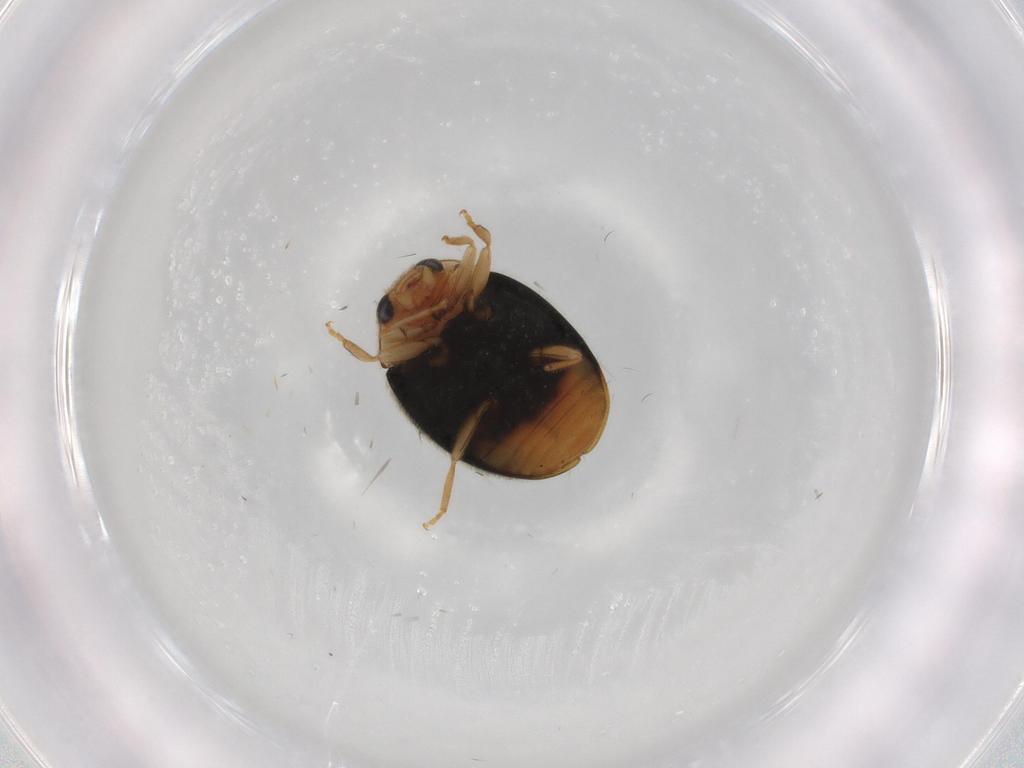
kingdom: Animalia
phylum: Arthropoda
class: Insecta
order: Coleoptera
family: Coccinellidae
